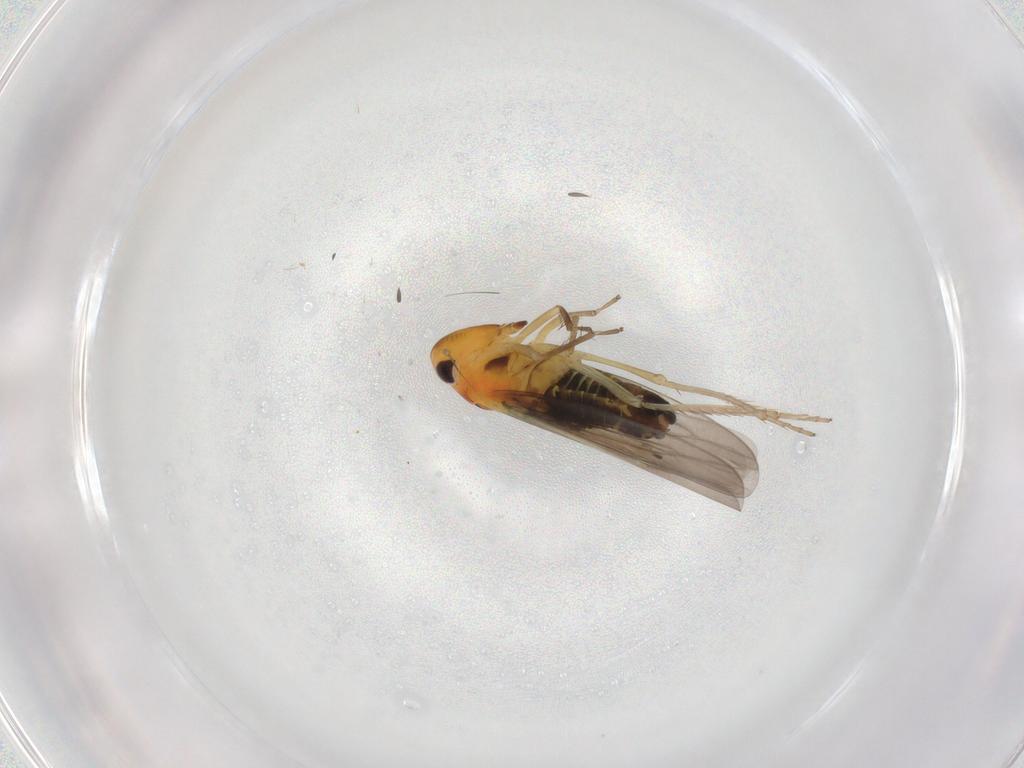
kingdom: Animalia
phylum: Arthropoda
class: Insecta
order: Hemiptera
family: Cicadellidae
